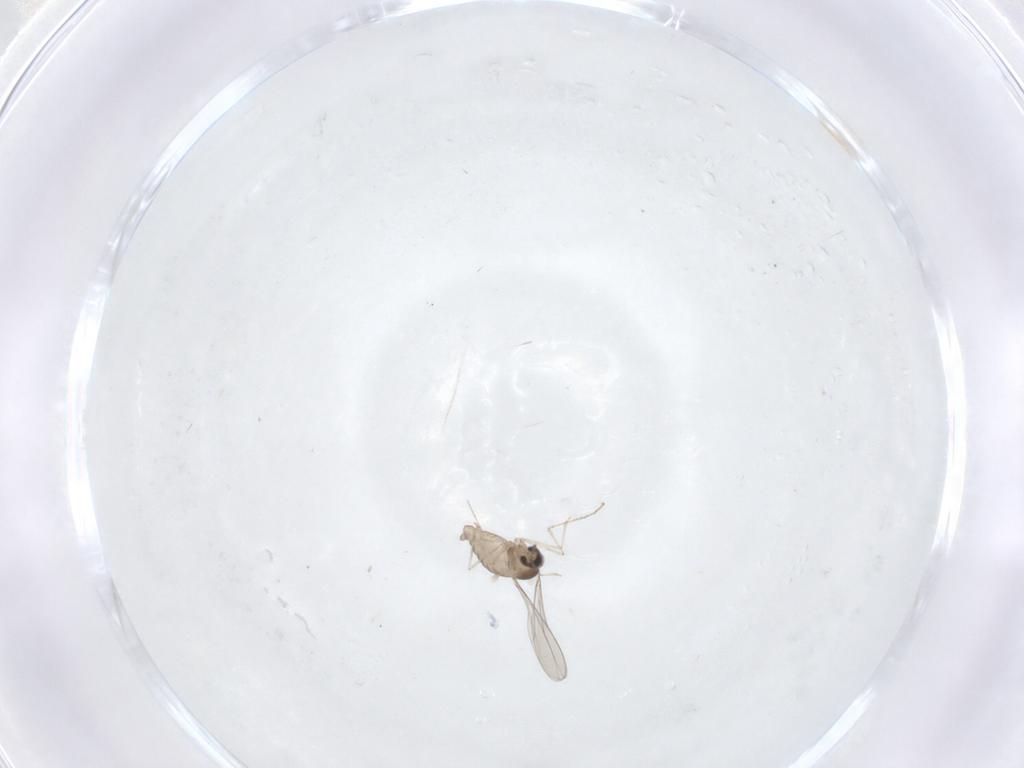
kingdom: Animalia
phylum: Arthropoda
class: Insecta
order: Diptera
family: Cecidomyiidae
